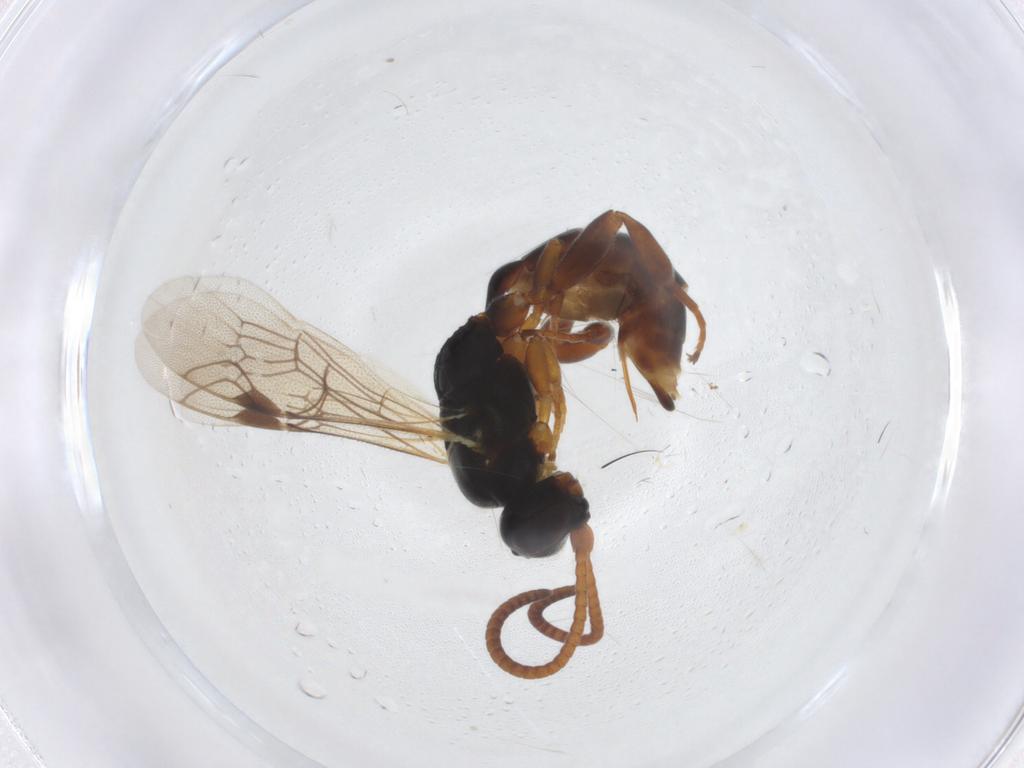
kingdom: Animalia
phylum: Arthropoda
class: Insecta
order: Hymenoptera
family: Ichneumonidae
